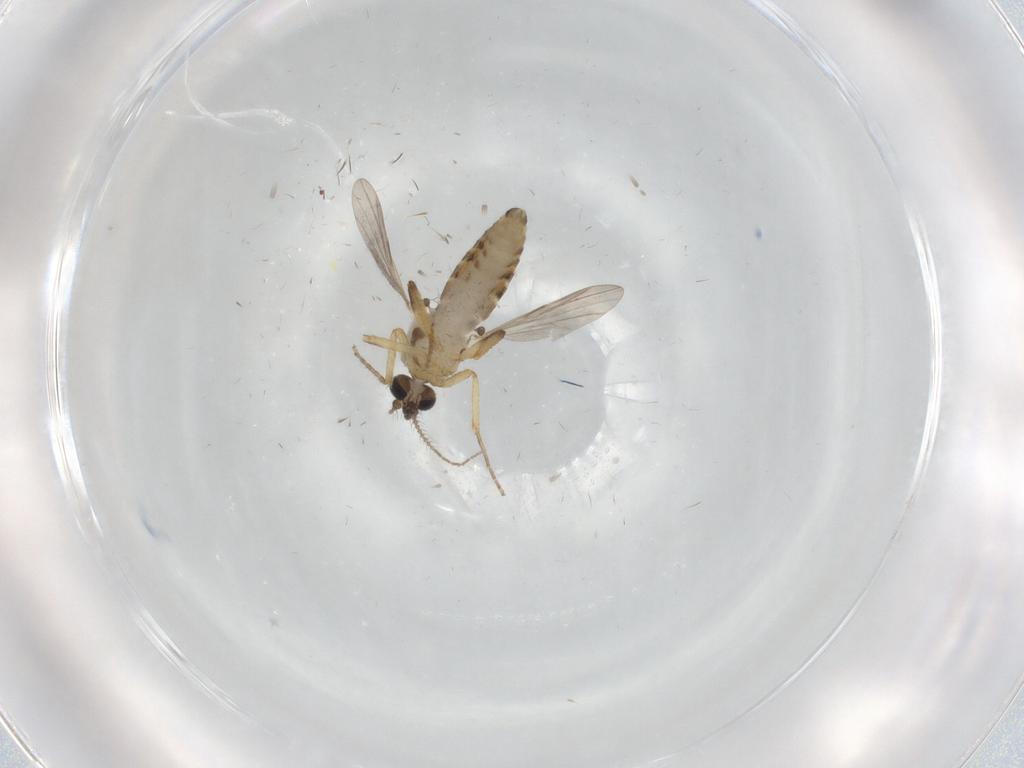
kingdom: Animalia
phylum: Arthropoda
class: Insecta
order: Diptera
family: Ceratopogonidae
